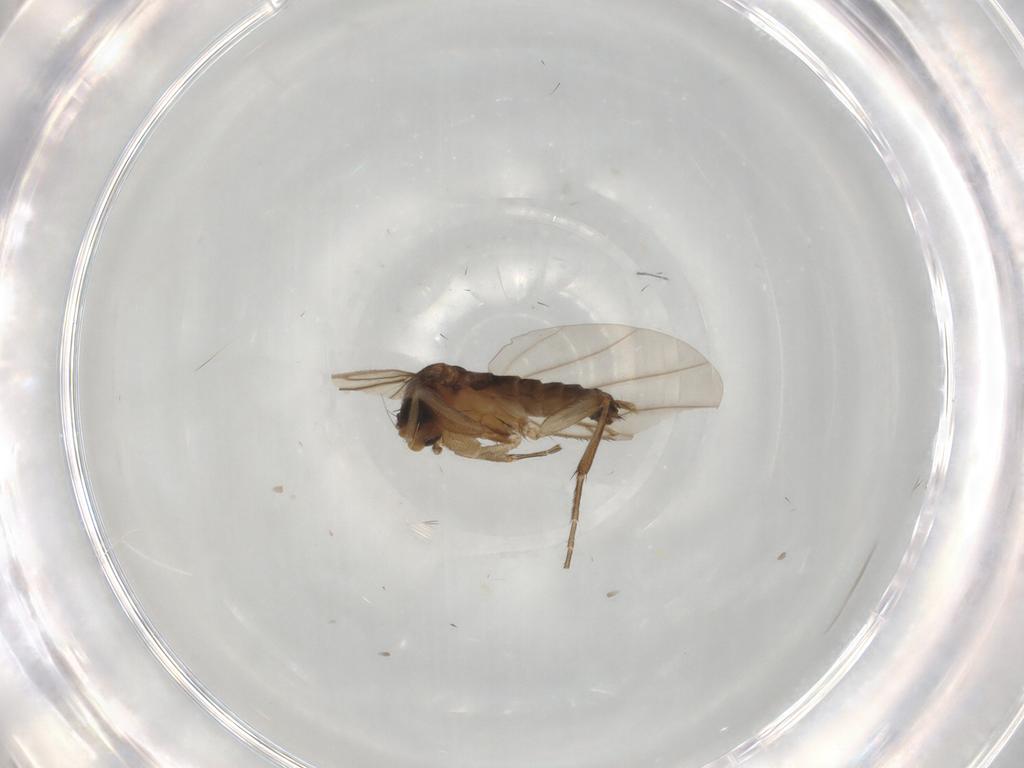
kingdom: Animalia
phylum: Arthropoda
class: Insecta
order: Diptera
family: Phoridae
